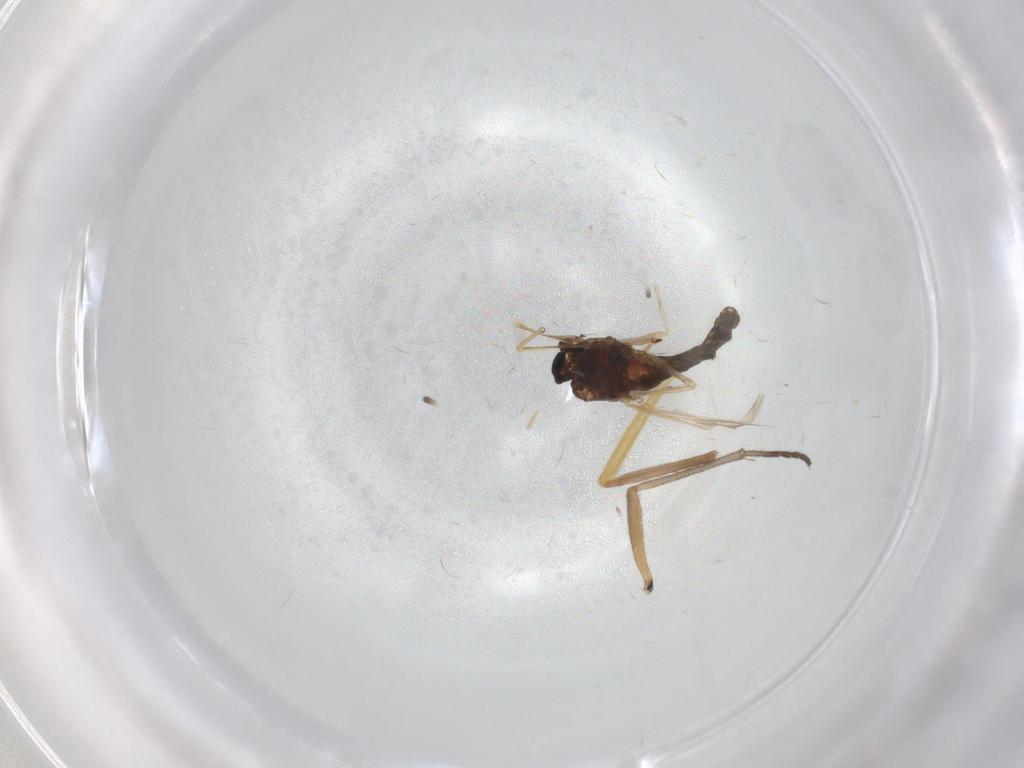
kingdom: Animalia
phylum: Arthropoda
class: Insecta
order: Diptera
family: Chironomidae
